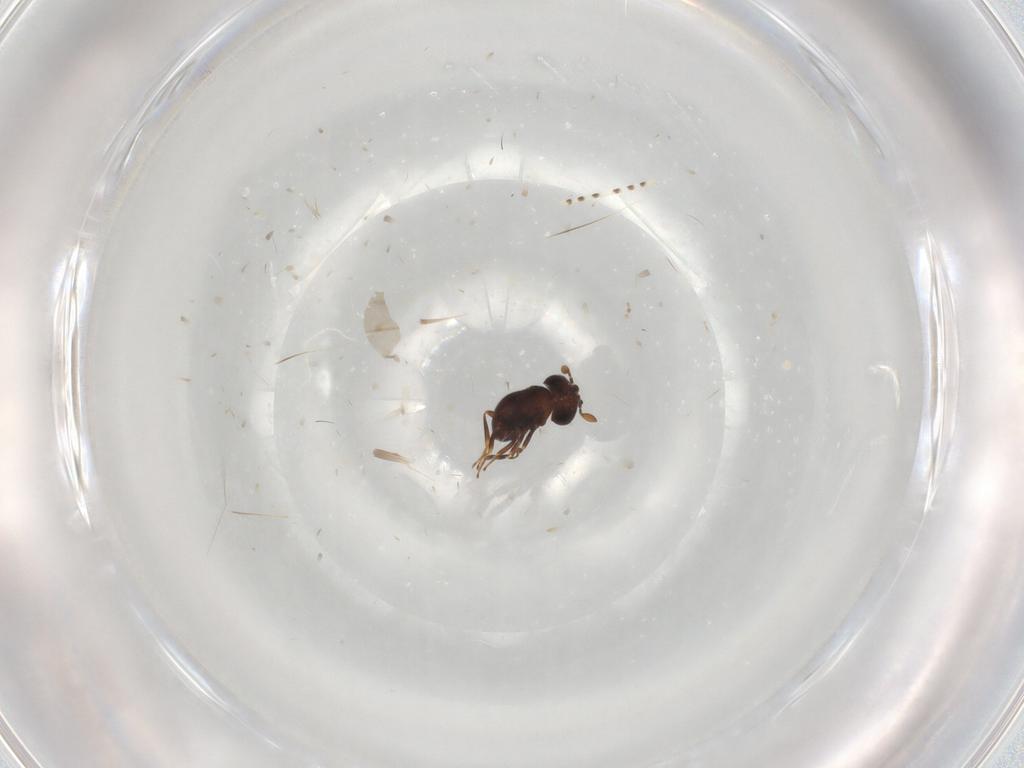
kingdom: Animalia
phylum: Arthropoda
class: Insecta
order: Hymenoptera
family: Scelionidae
